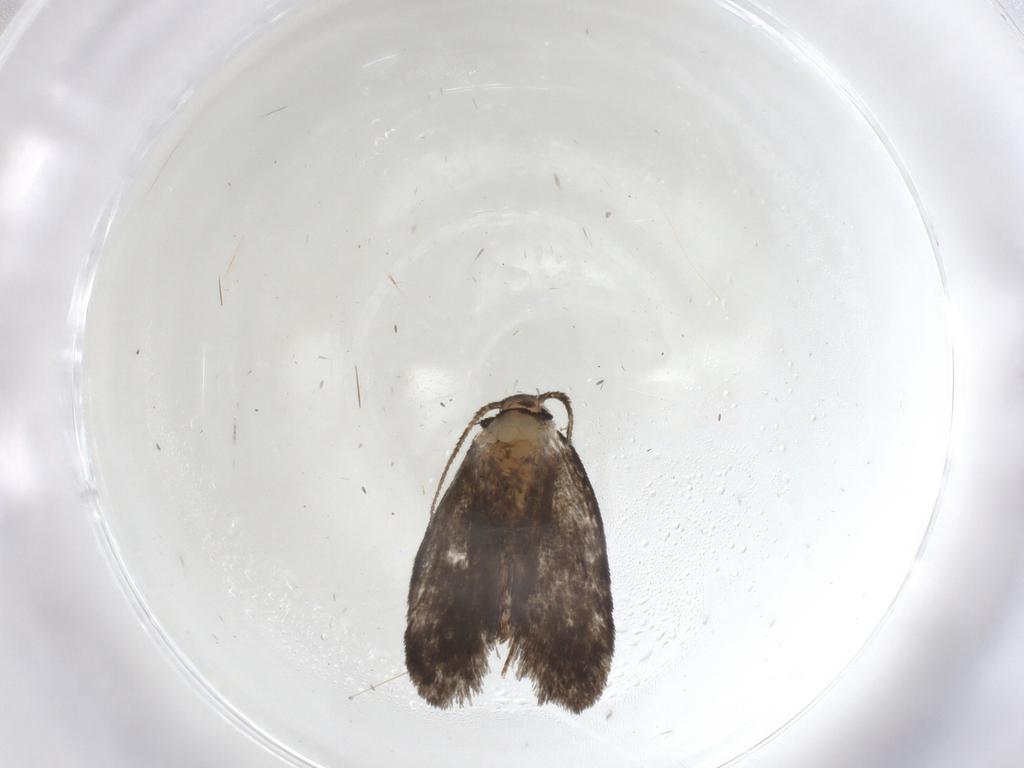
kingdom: Animalia
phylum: Arthropoda
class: Insecta
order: Lepidoptera
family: Psychidae
